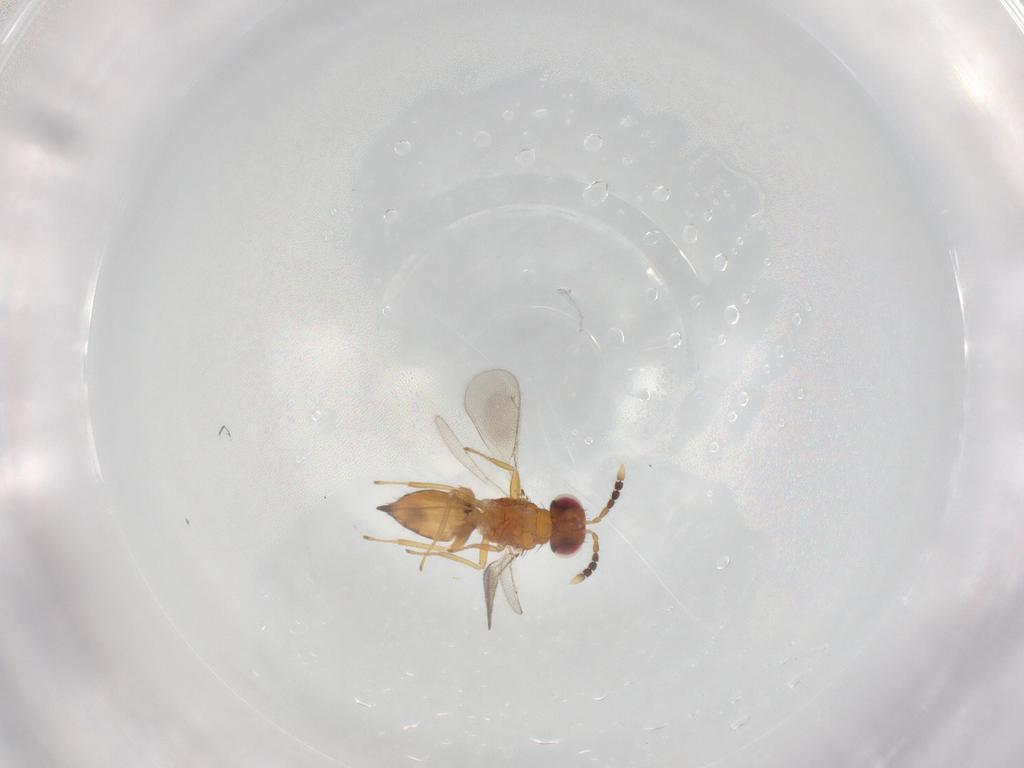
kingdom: Animalia
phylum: Arthropoda
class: Insecta
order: Hymenoptera
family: Eulophidae
